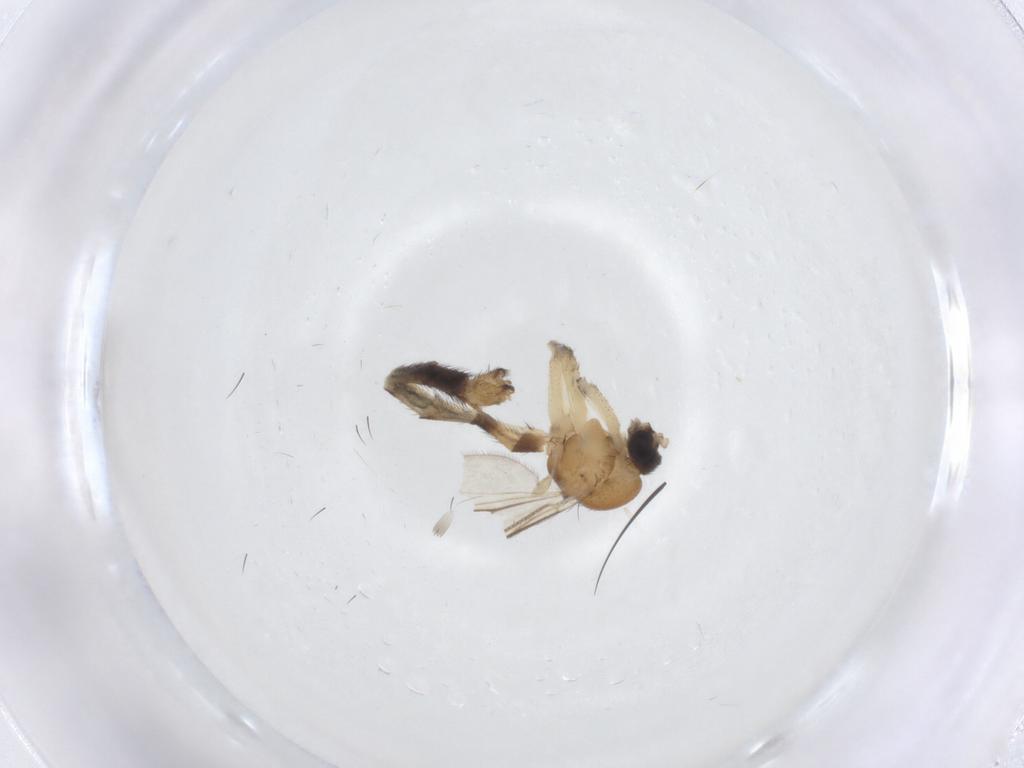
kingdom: Animalia
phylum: Arthropoda
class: Insecta
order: Diptera
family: Keroplatidae
